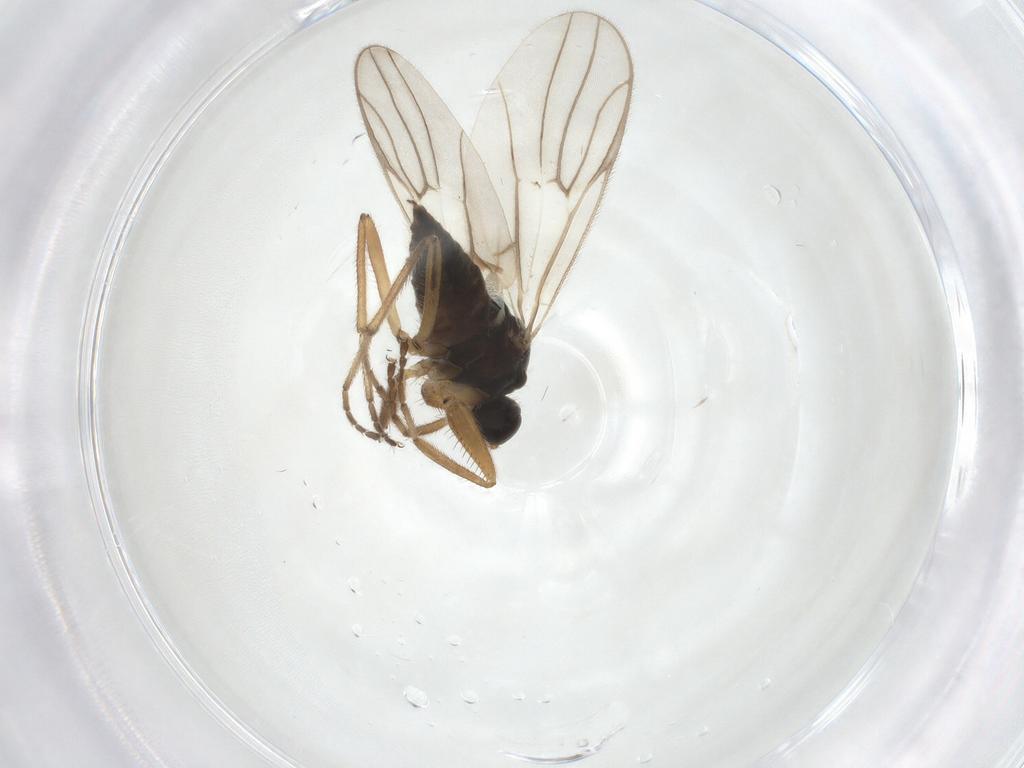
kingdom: Animalia
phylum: Arthropoda
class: Insecta
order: Diptera
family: Hybotidae
